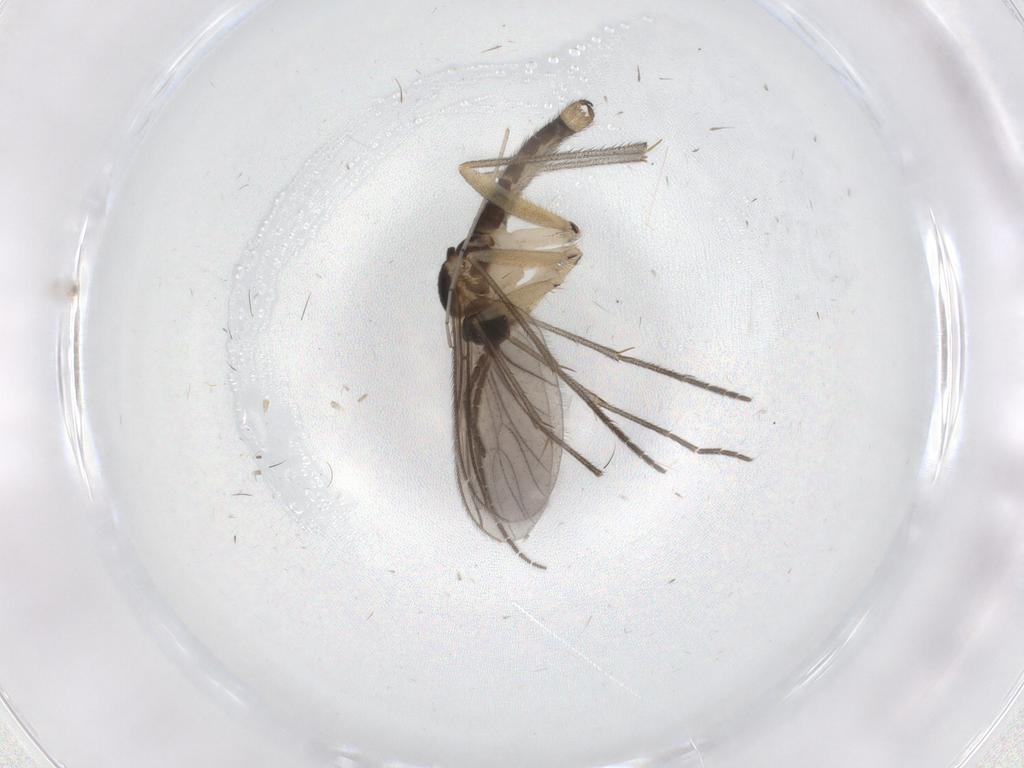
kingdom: Animalia
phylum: Arthropoda
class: Insecta
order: Diptera
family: Sciaridae
